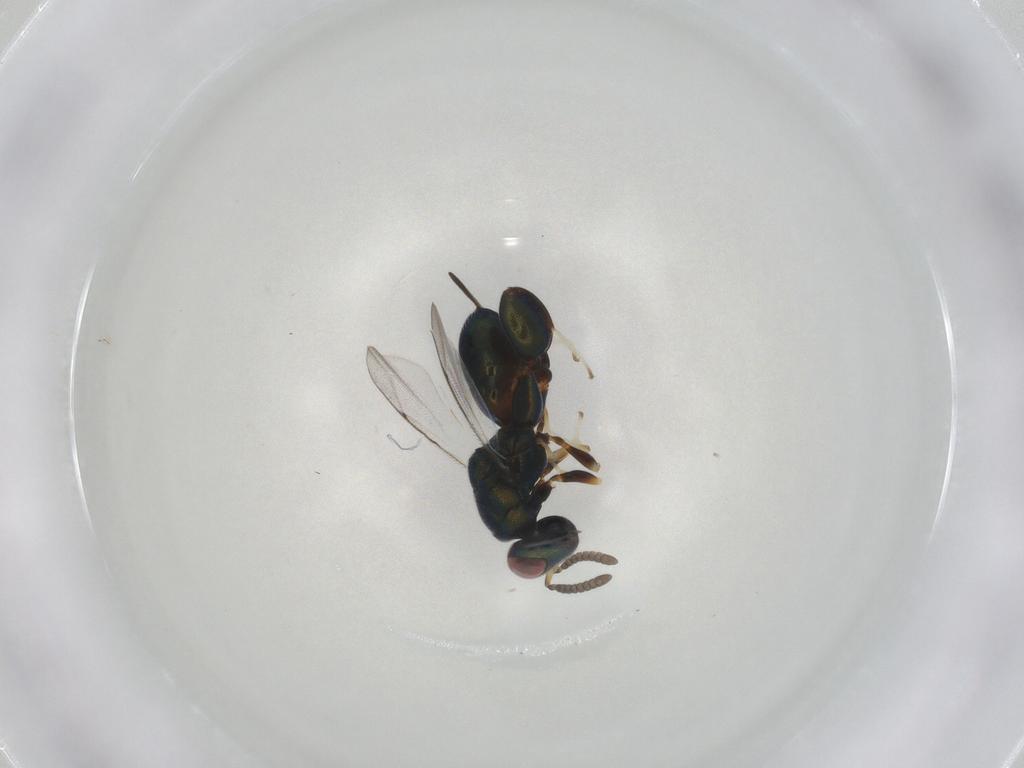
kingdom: Animalia
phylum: Arthropoda
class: Insecta
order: Hymenoptera
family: Torymidae
